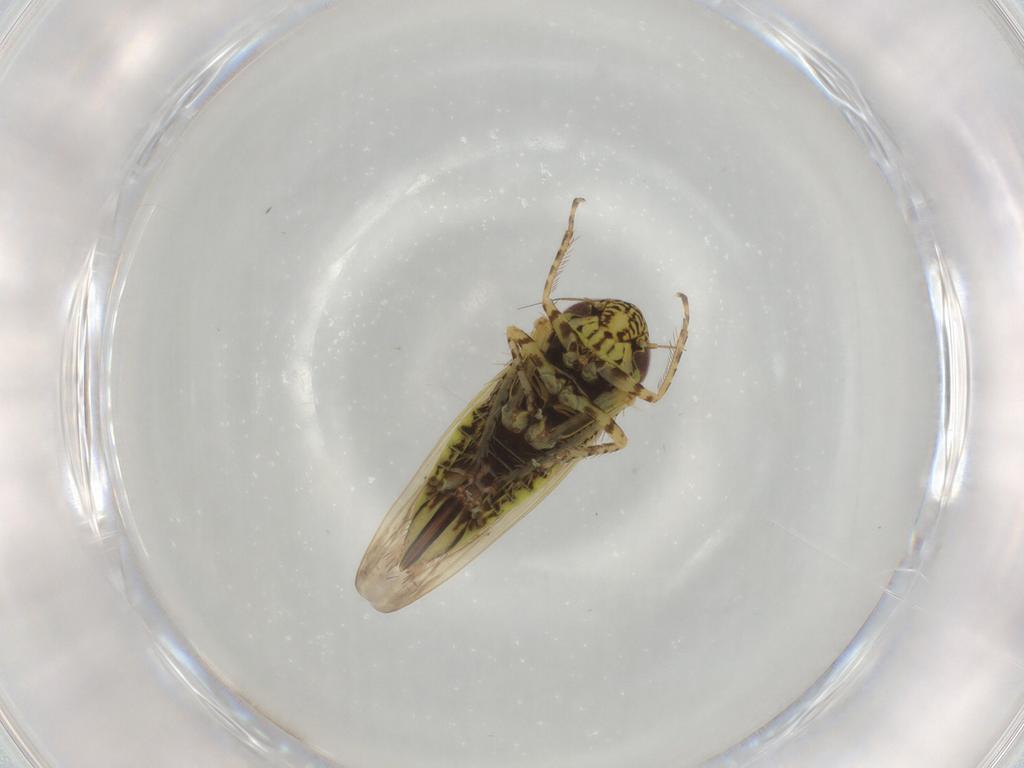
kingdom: Animalia
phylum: Arthropoda
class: Insecta
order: Hemiptera
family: Cicadellidae
